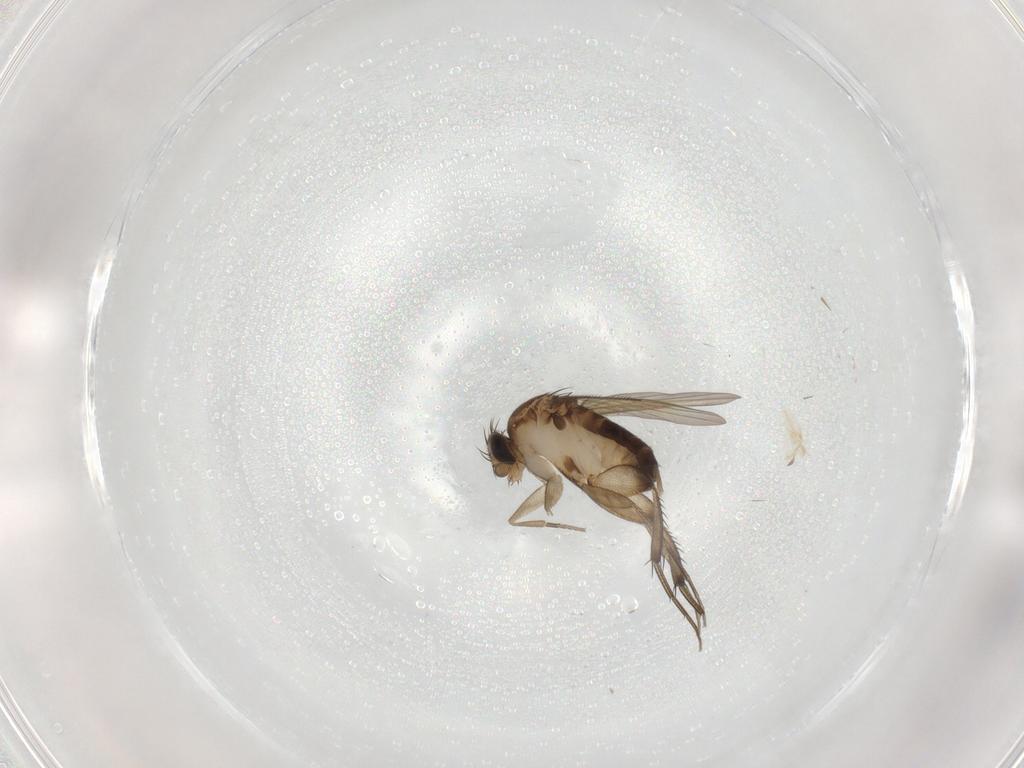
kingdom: Animalia
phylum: Arthropoda
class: Insecta
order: Diptera
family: Phoridae
